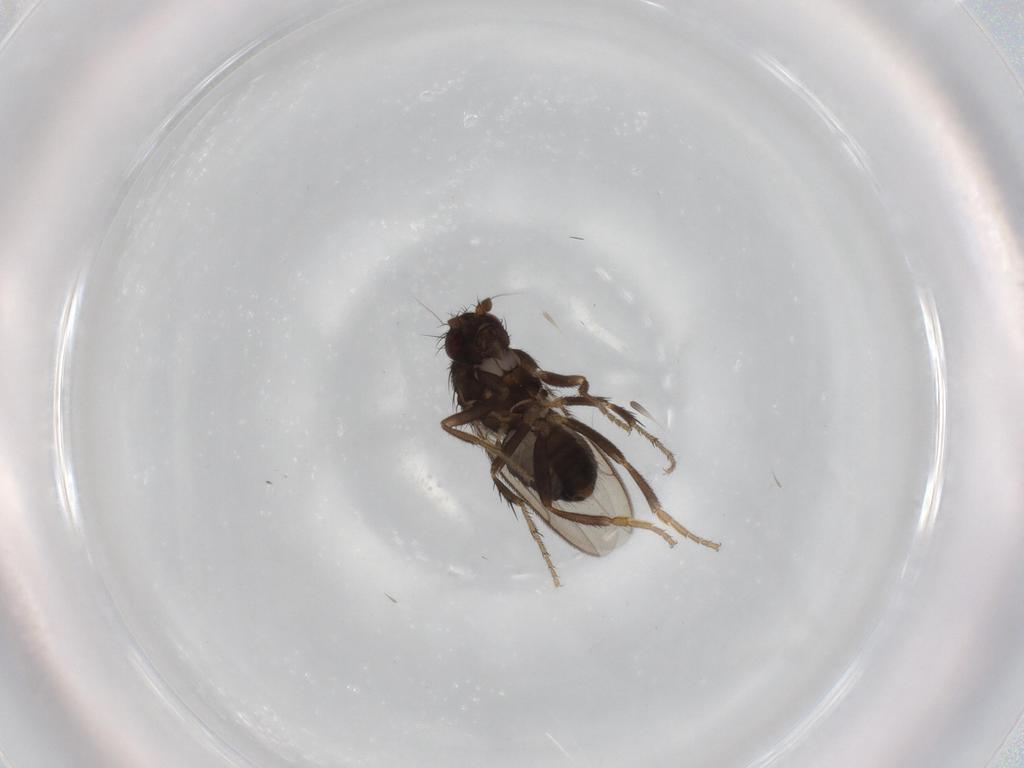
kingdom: Animalia
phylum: Arthropoda
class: Insecta
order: Diptera
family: Sphaeroceridae
